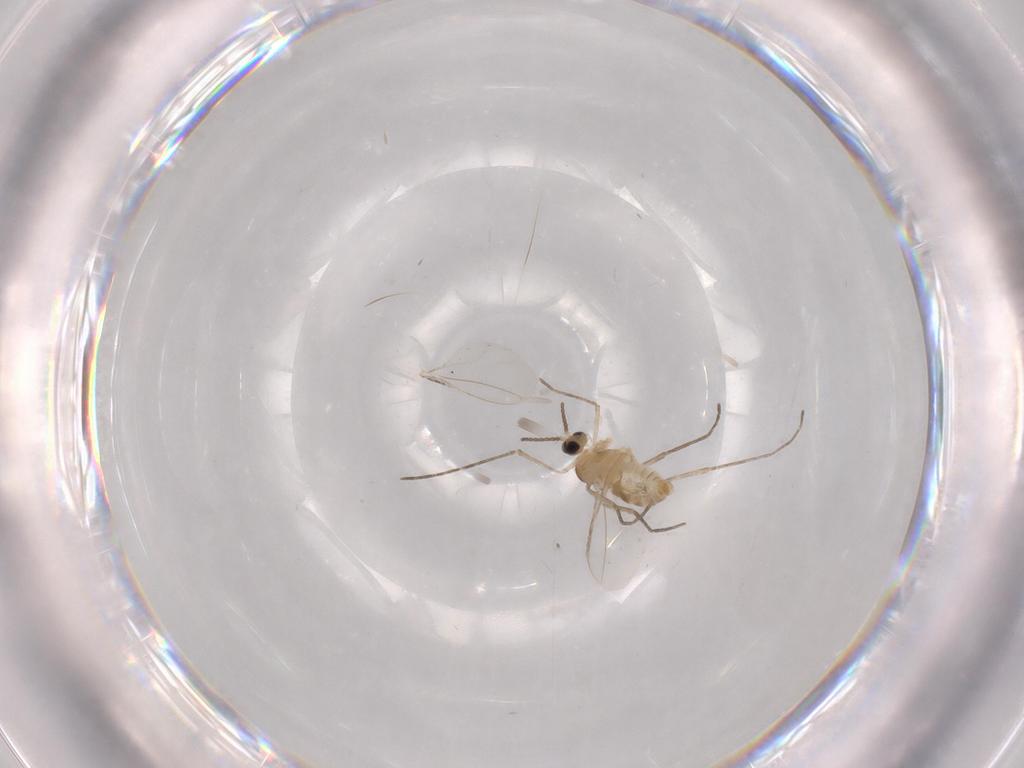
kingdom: Animalia
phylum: Arthropoda
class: Insecta
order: Diptera
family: Cecidomyiidae
